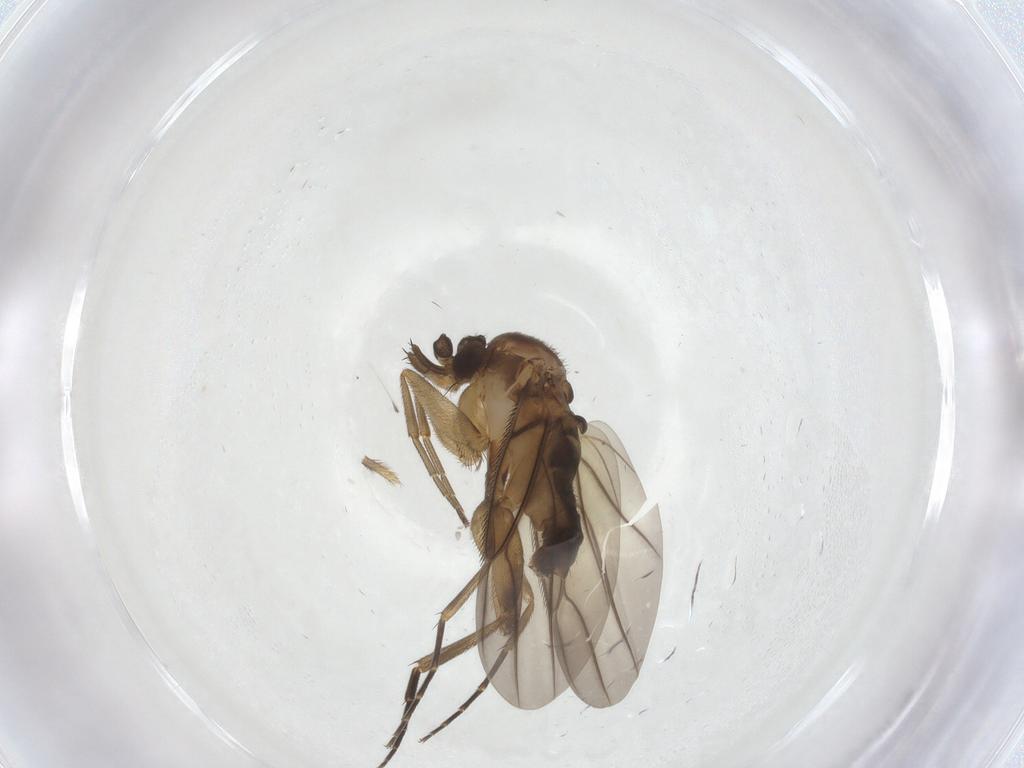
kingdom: Animalia
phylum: Arthropoda
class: Insecta
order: Diptera
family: Phoridae
